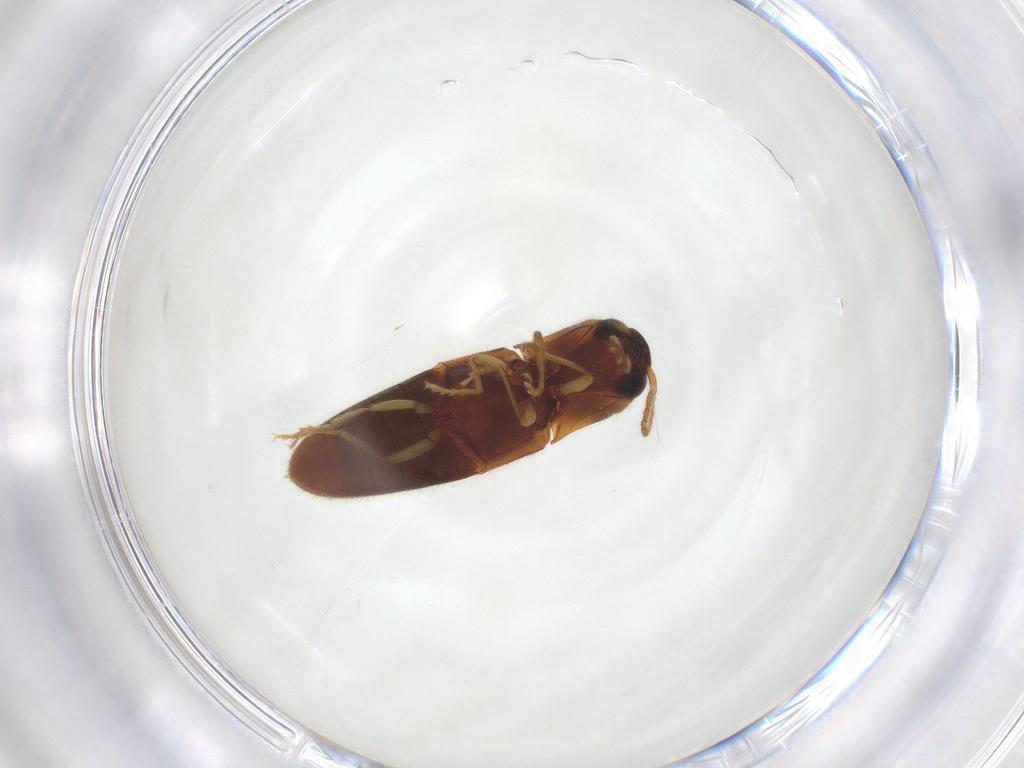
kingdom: Animalia
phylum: Arthropoda
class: Insecta
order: Coleoptera
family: Elateridae
